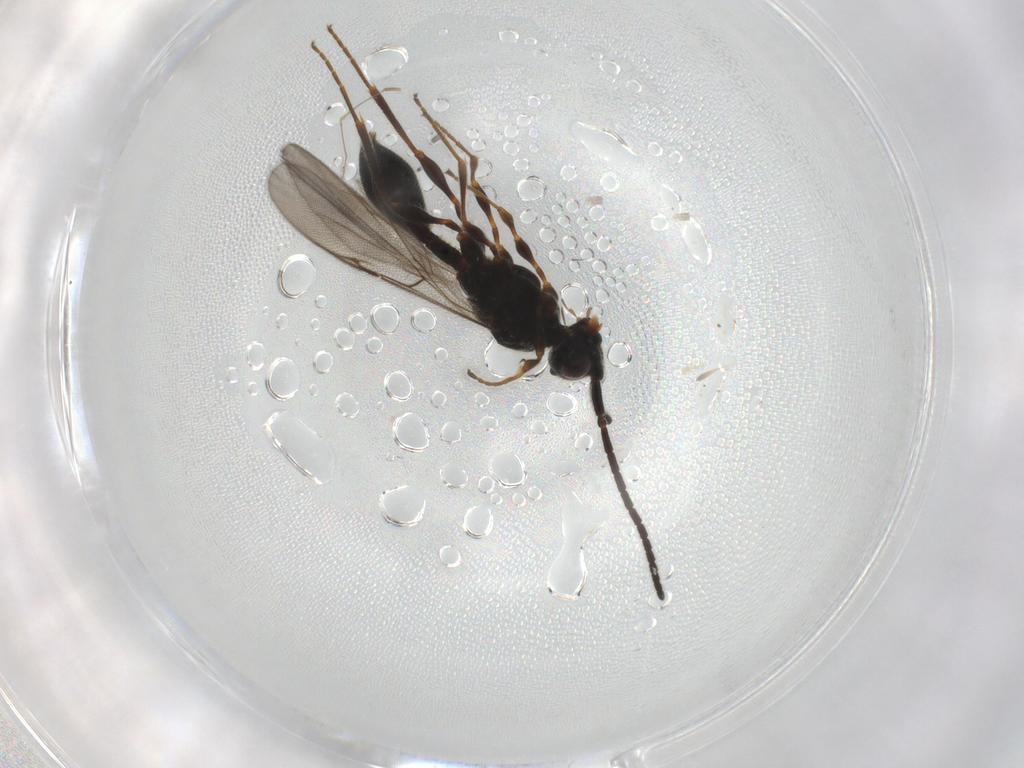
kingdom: Animalia
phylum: Arthropoda
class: Insecta
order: Hymenoptera
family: Diapriidae
